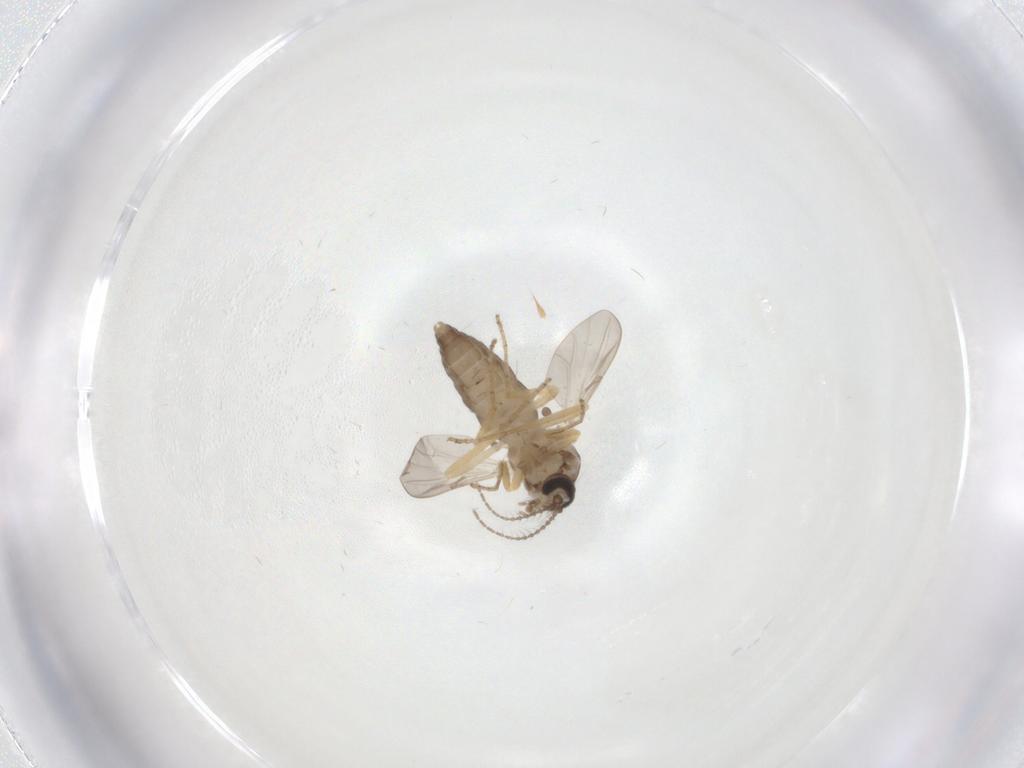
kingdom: Animalia
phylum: Arthropoda
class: Insecta
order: Diptera
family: Ceratopogonidae
